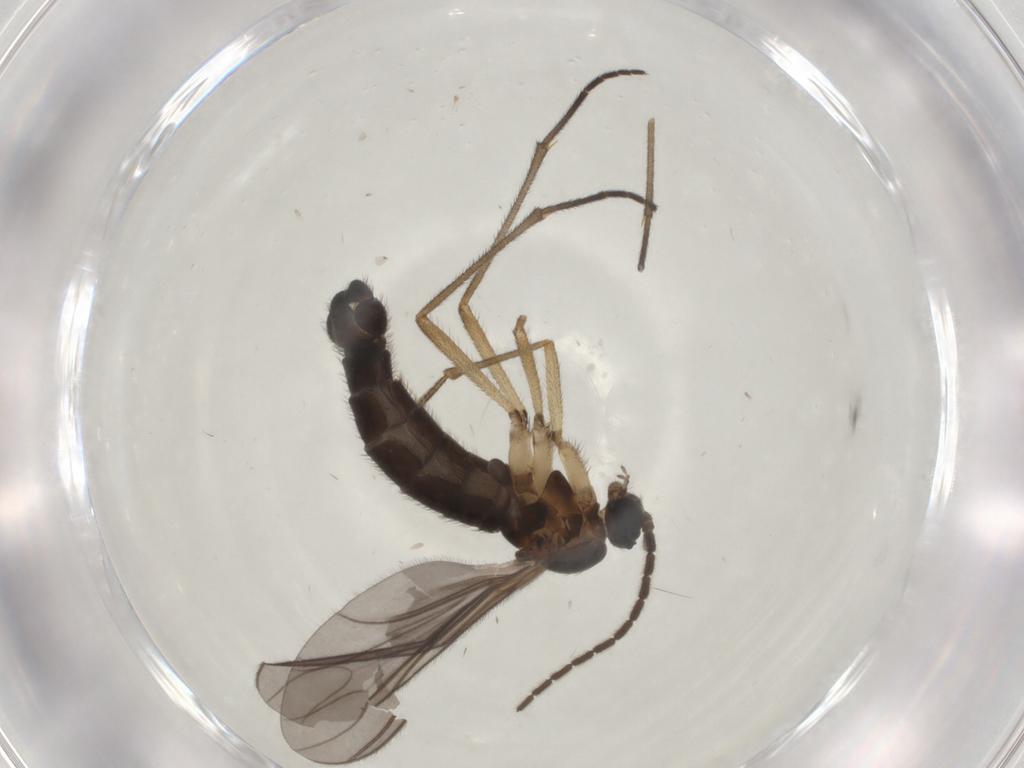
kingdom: Animalia
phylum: Arthropoda
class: Insecta
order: Diptera
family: Sciaridae
